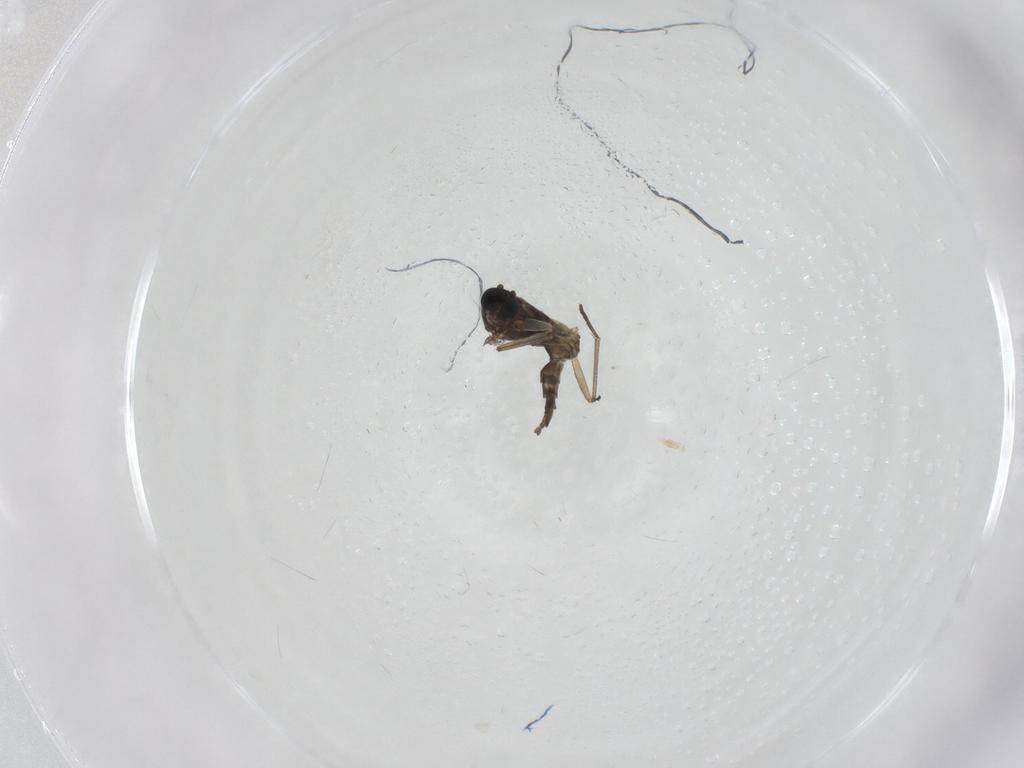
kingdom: Animalia
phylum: Arthropoda
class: Insecta
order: Diptera
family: Sciaridae
